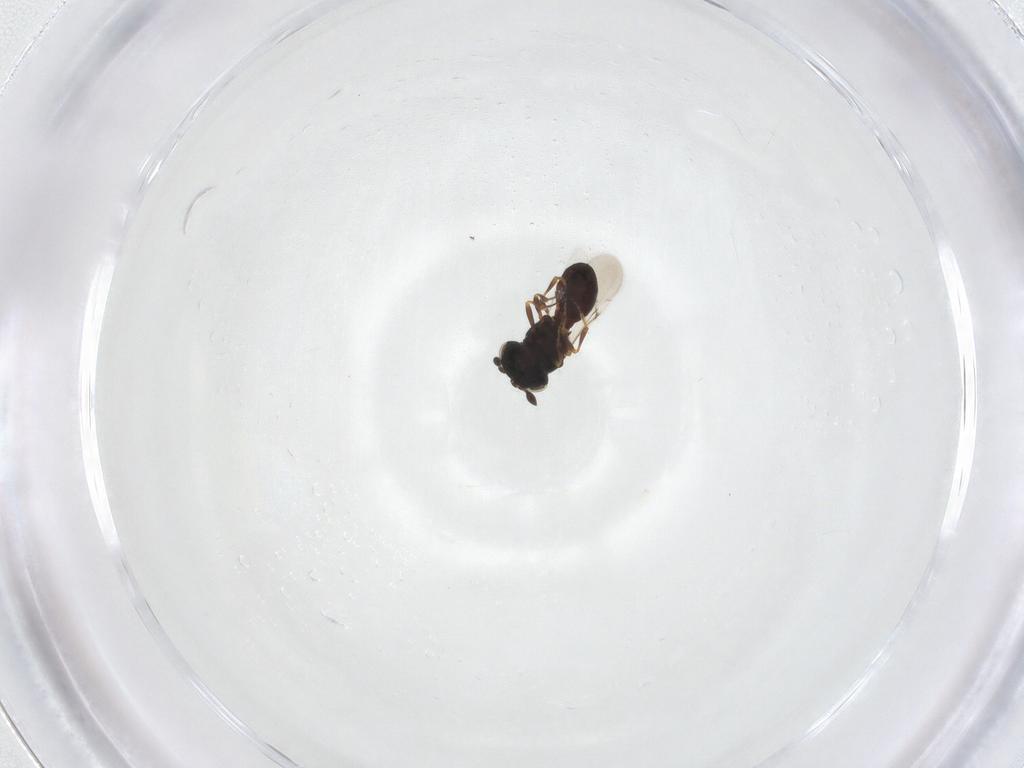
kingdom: Animalia
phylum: Arthropoda
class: Insecta
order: Hymenoptera
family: Scelionidae
